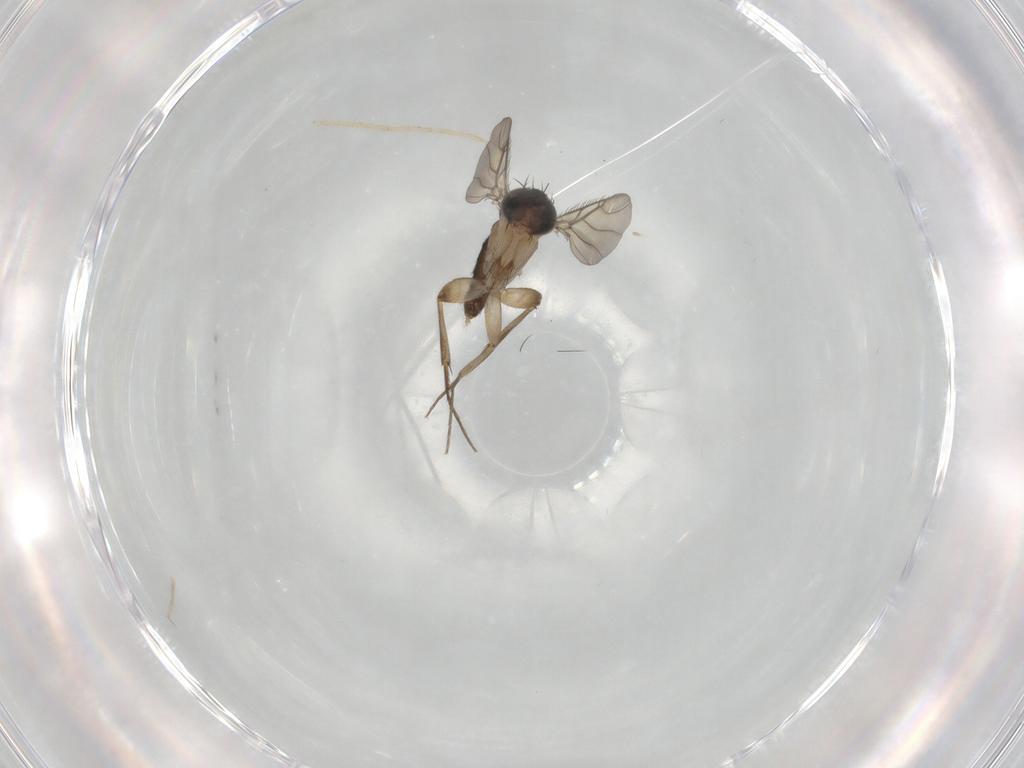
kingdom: Animalia
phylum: Arthropoda
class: Insecta
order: Diptera
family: Phoridae
